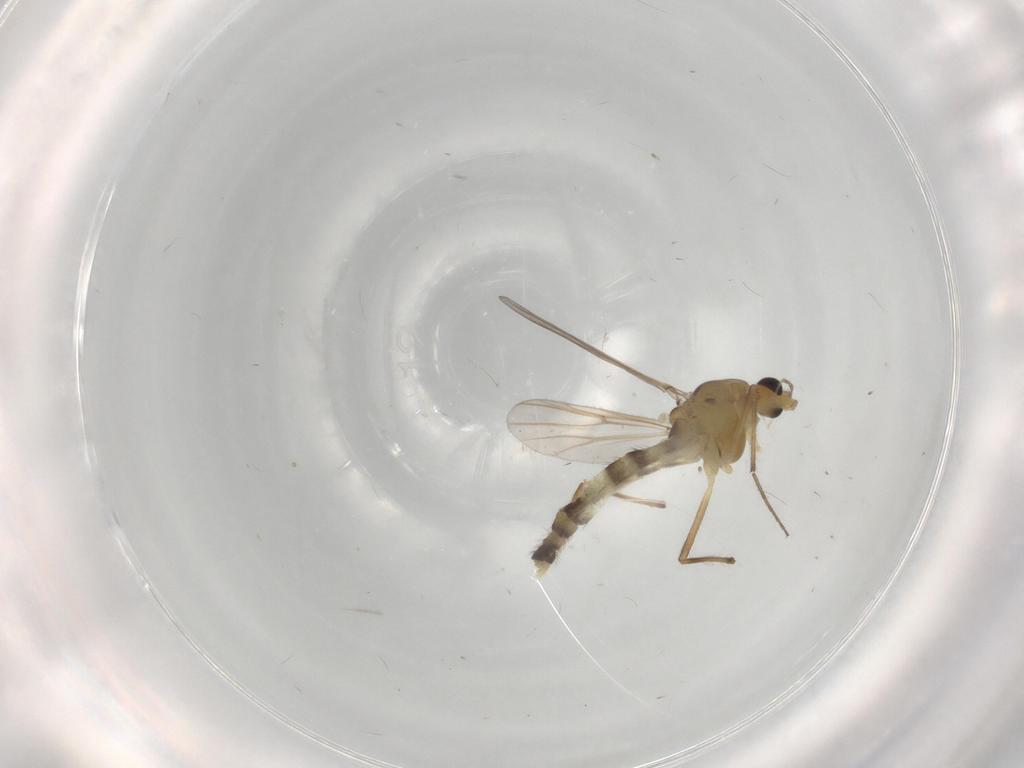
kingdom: Animalia
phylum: Arthropoda
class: Insecta
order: Diptera
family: Chironomidae
